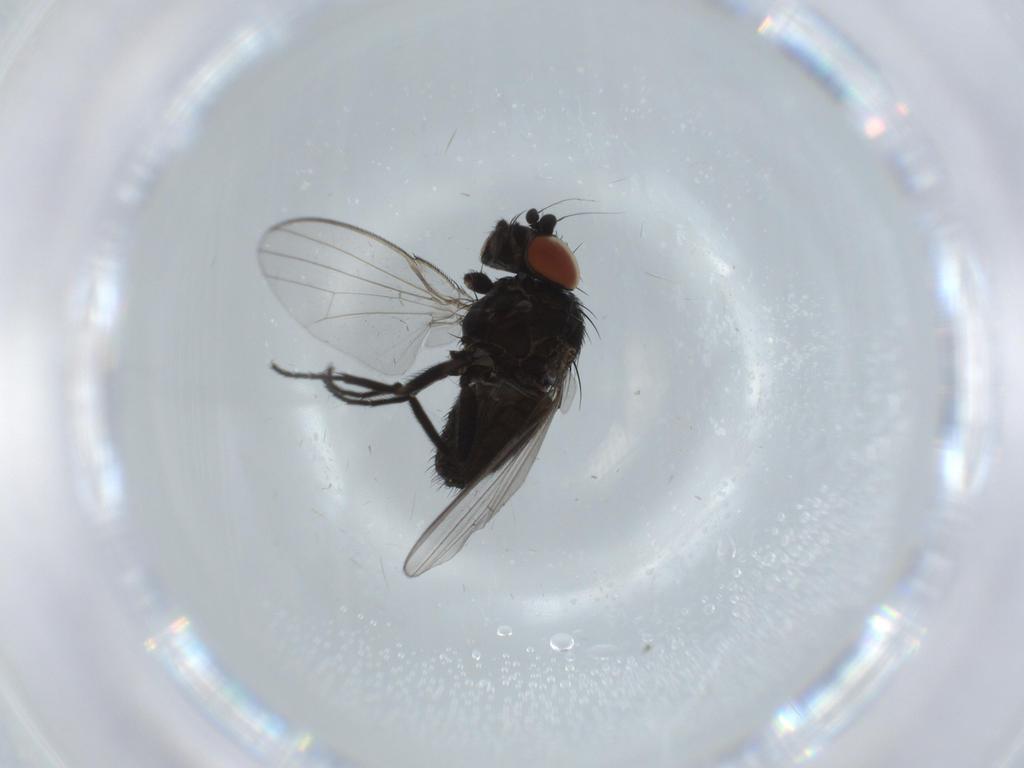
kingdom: Animalia
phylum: Arthropoda
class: Insecta
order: Diptera
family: Milichiidae
